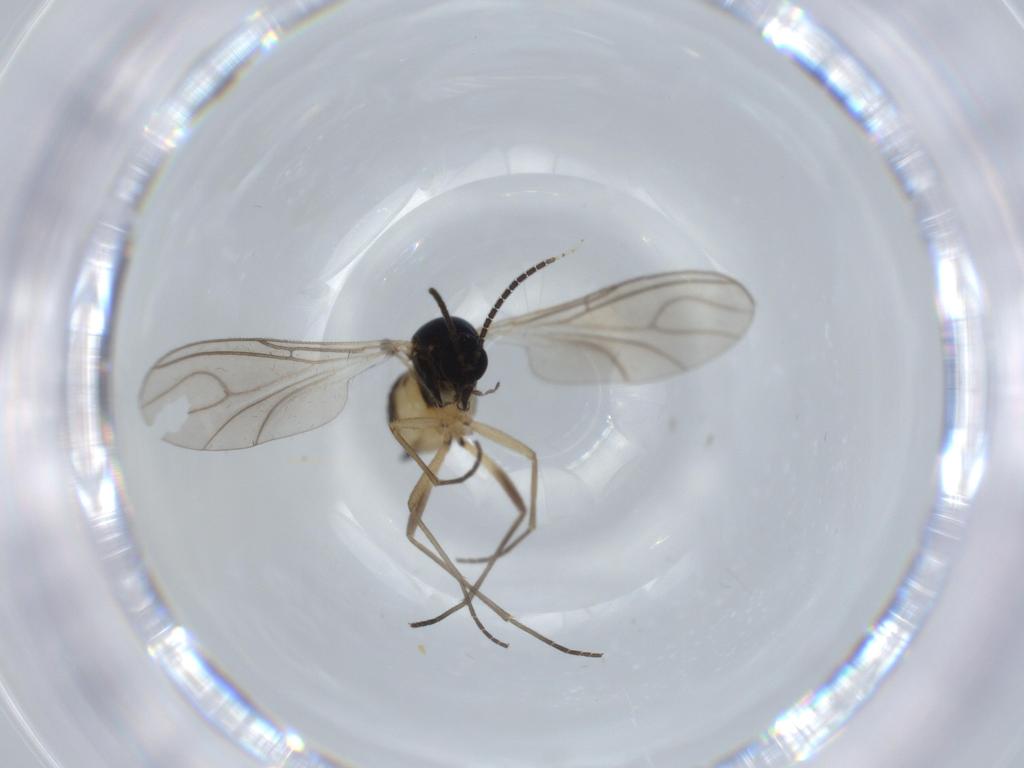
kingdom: Animalia
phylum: Arthropoda
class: Insecta
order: Diptera
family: Sciaridae
